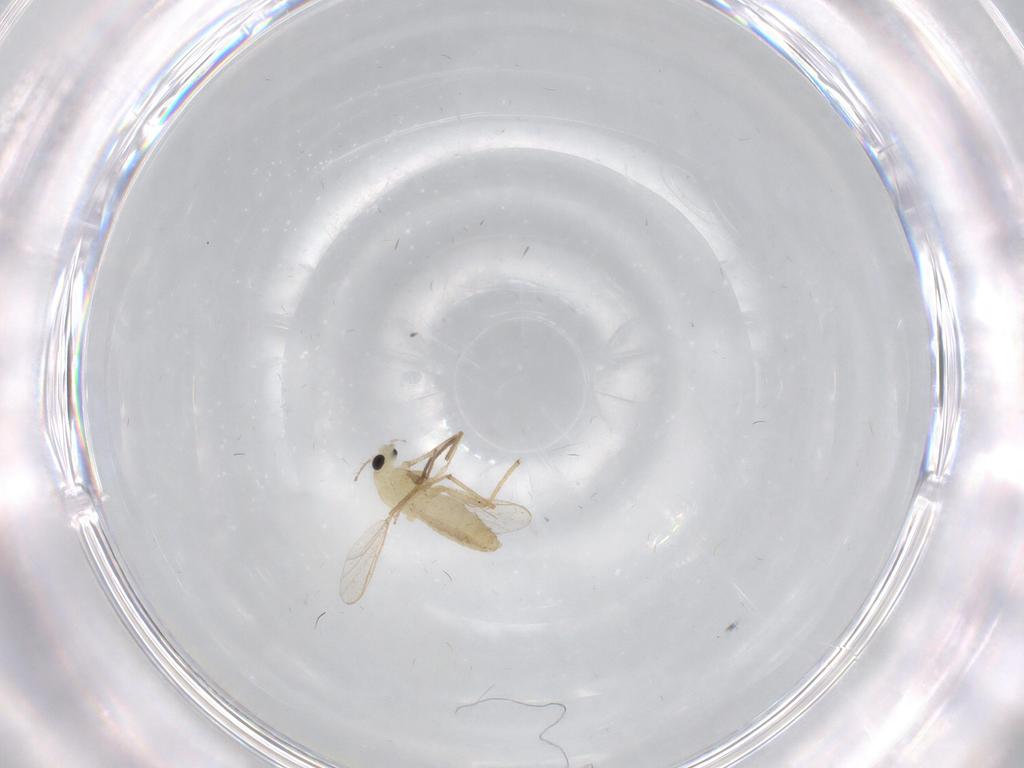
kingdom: Animalia
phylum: Arthropoda
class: Insecta
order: Diptera
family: Chironomidae
